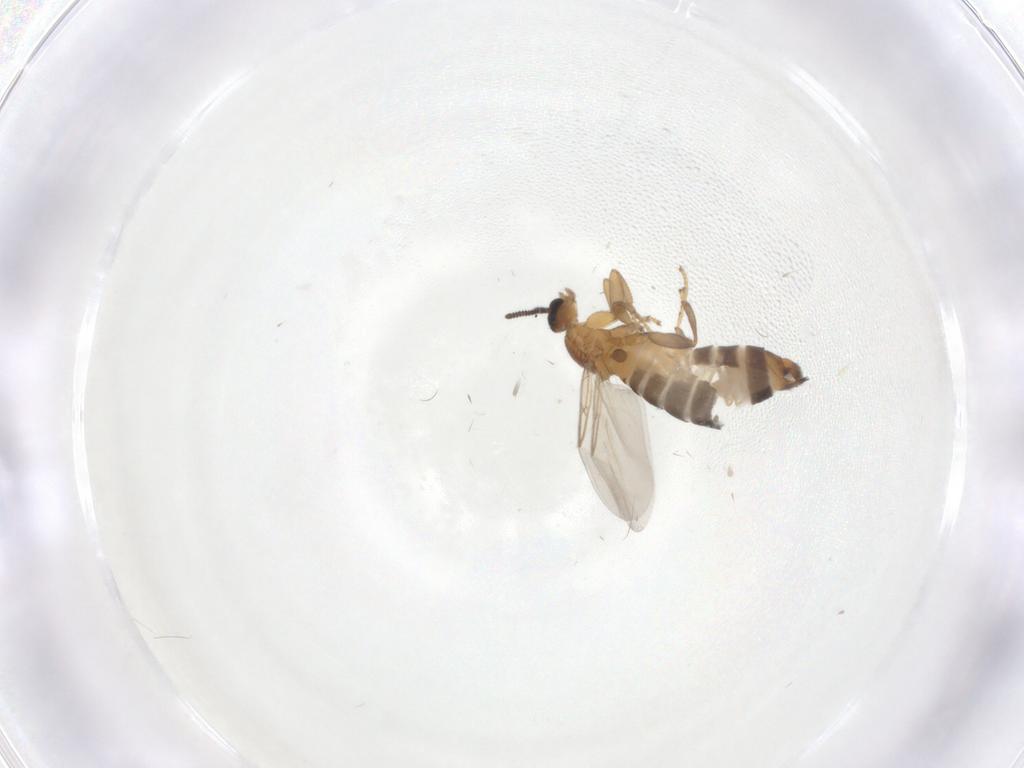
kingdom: Animalia
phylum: Arthropoda
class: Insecta
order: Diptera
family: Scatopsidae
